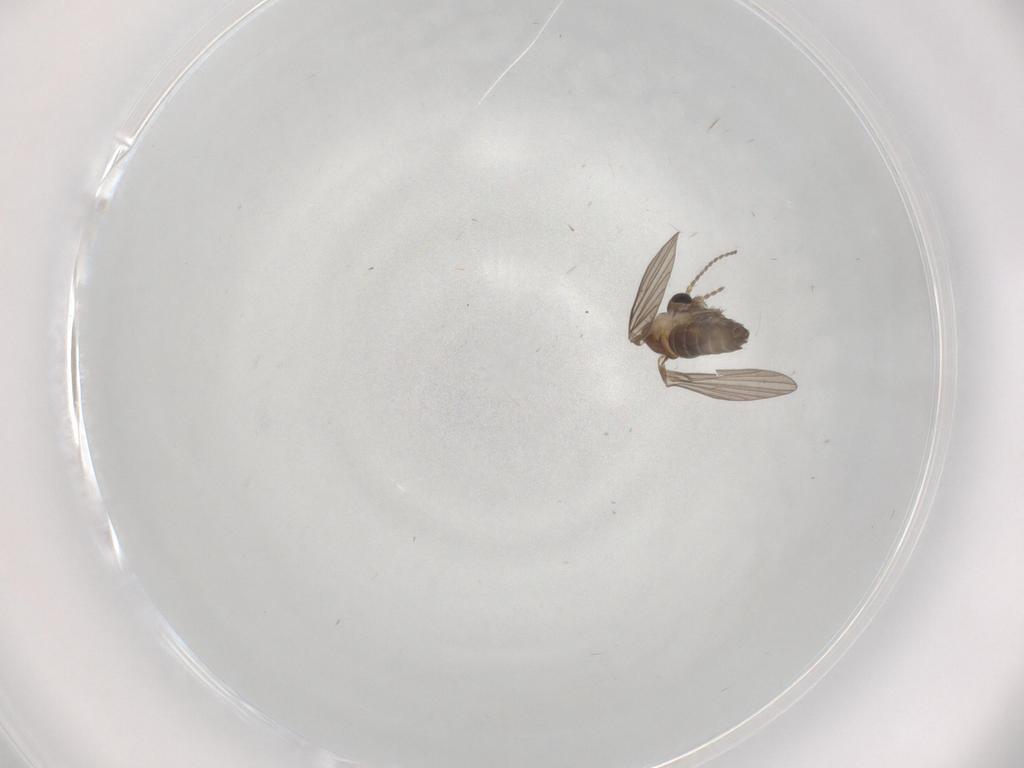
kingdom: Animalia
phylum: Arthropoda
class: Insecta
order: Diptera
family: Psychodidae
